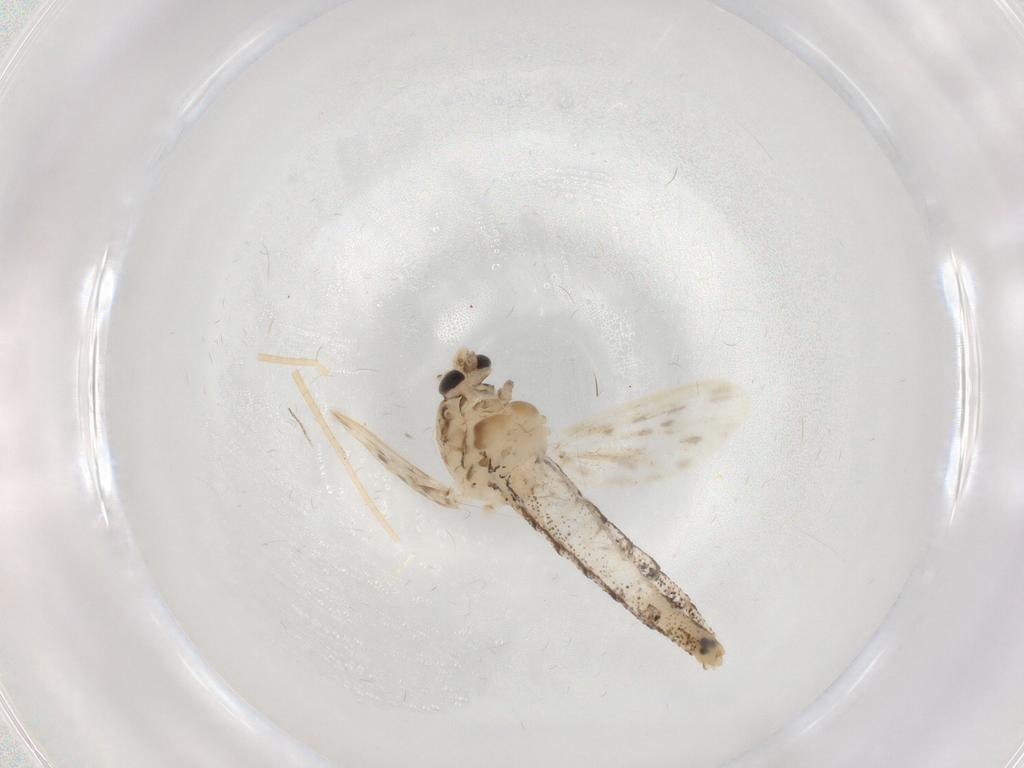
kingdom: Animalia
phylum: Arthropoda
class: Insecta
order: Diptera
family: Chaoboridae
